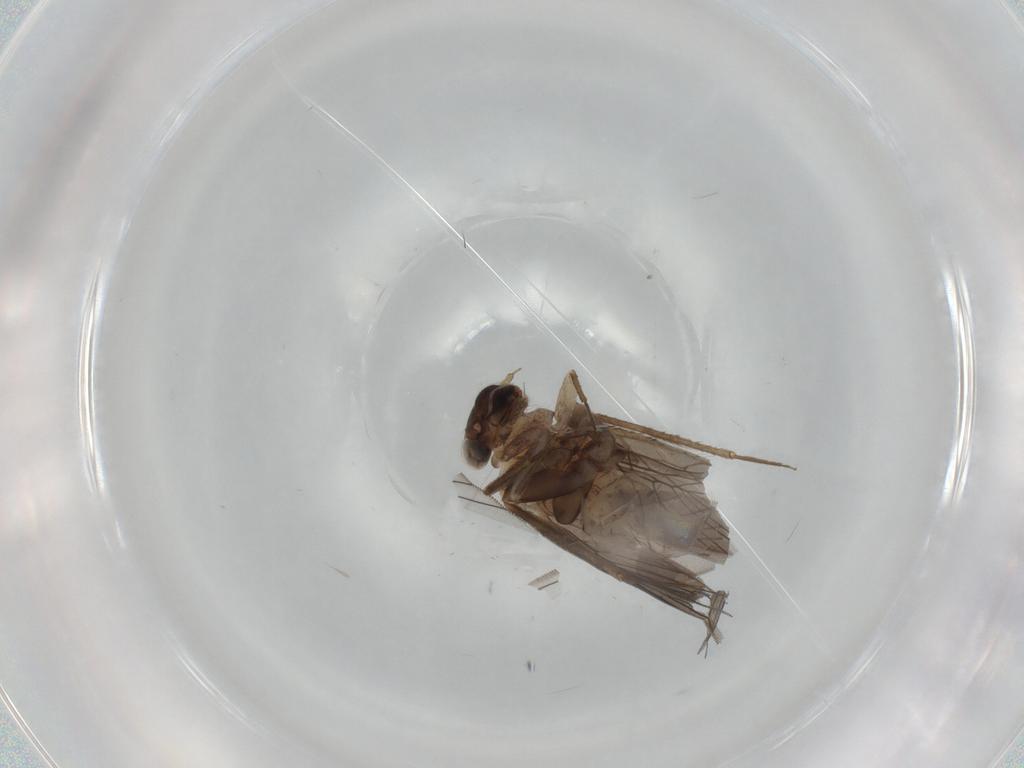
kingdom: Animalia
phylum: Arthropoda
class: Insecta
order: Psocodea
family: Lepidopsocidae
